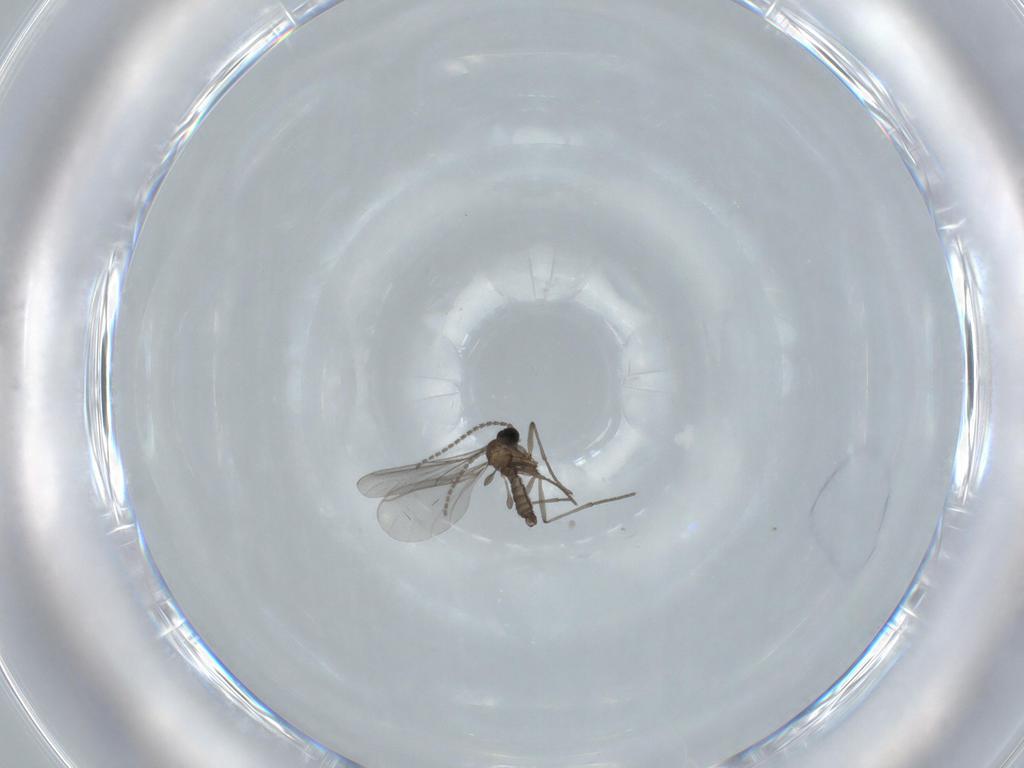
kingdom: Animalia
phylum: Arthropoda
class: Insecta
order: Diptera
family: Sciaridae
